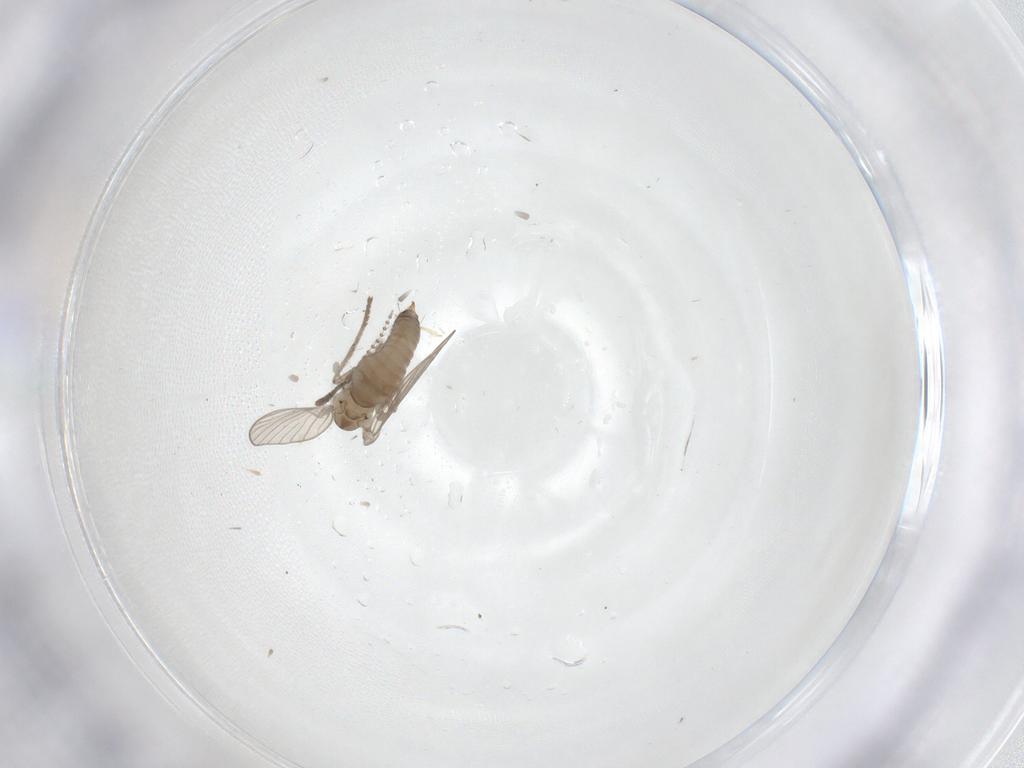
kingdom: Animalia
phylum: Arthropoda
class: Insecta
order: Diptera
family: Psychodidae
